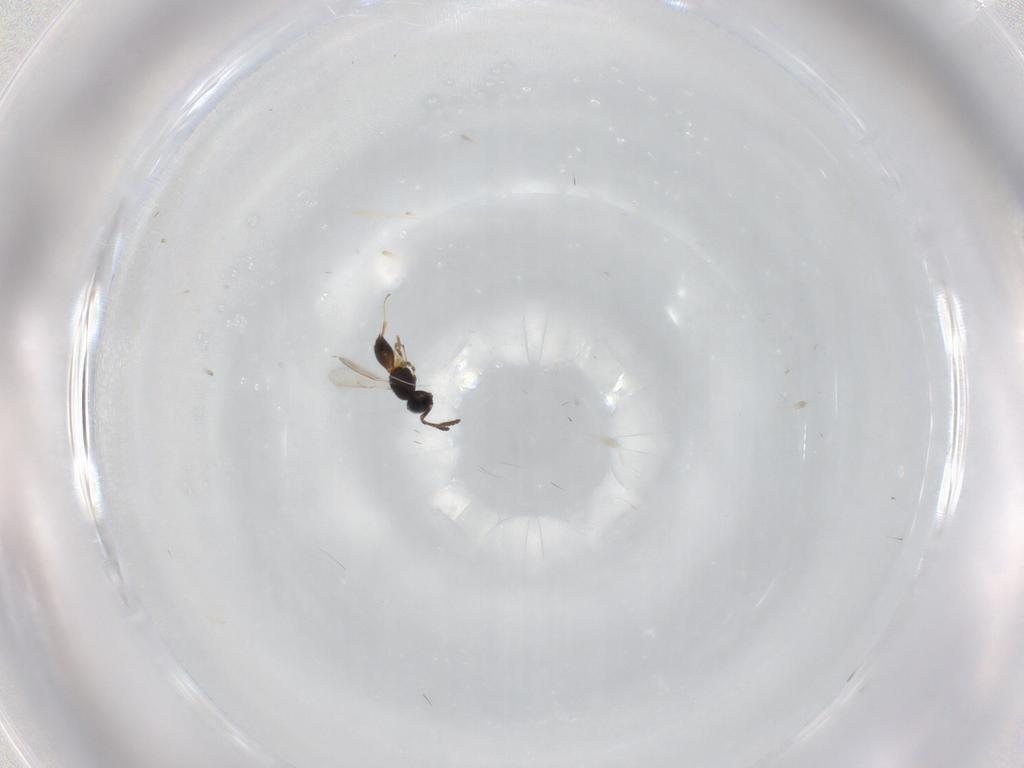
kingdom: Animalia
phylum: Arthropoda
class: Insecta
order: Hymenoptera
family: Scelionidae
